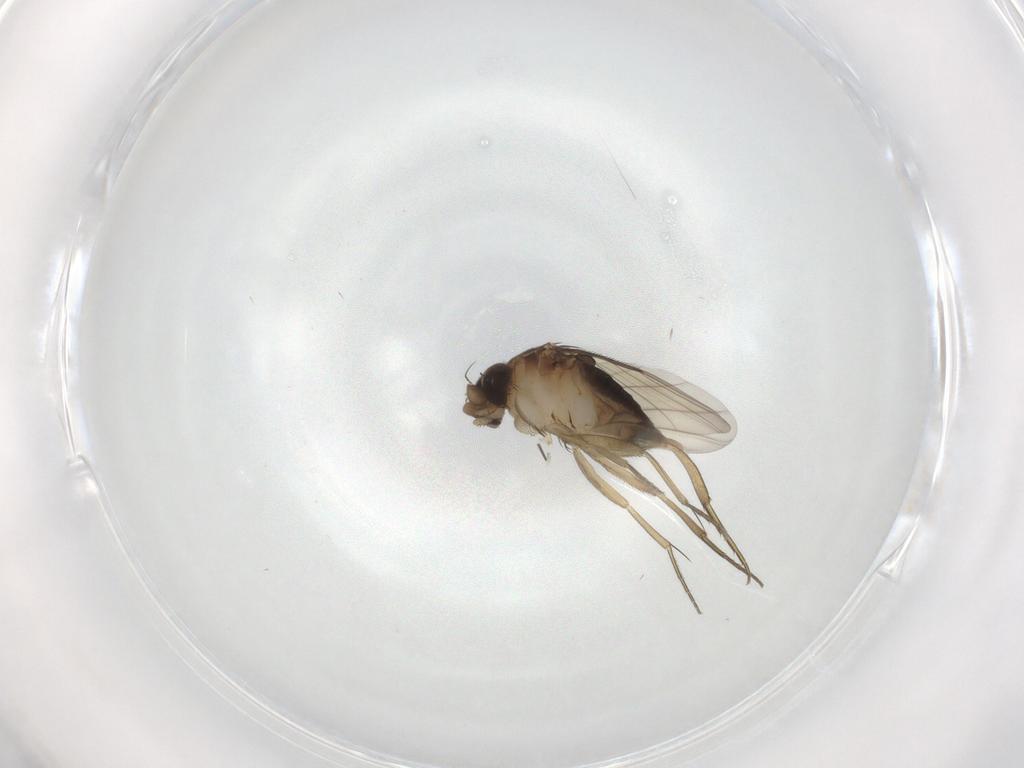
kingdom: Animalia
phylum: Arthropoda
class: Insecta
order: Diptera
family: Phoridae
